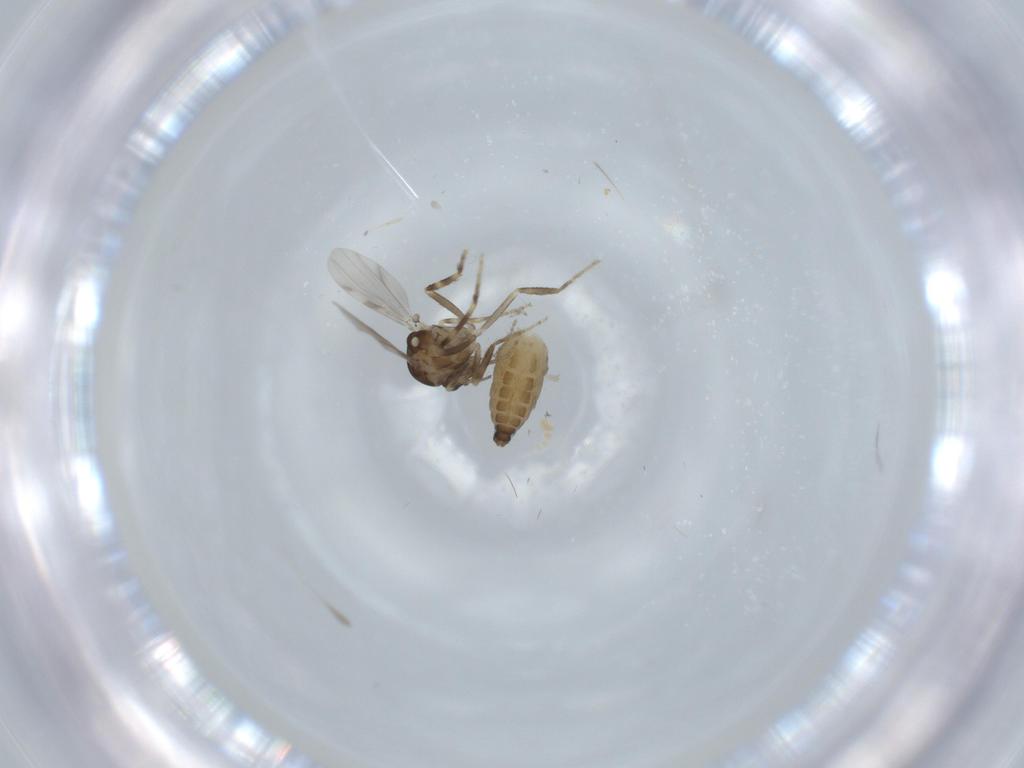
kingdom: Animalia
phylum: Arthropoda
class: Insecta
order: Diptera
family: Ceratopogonidae
